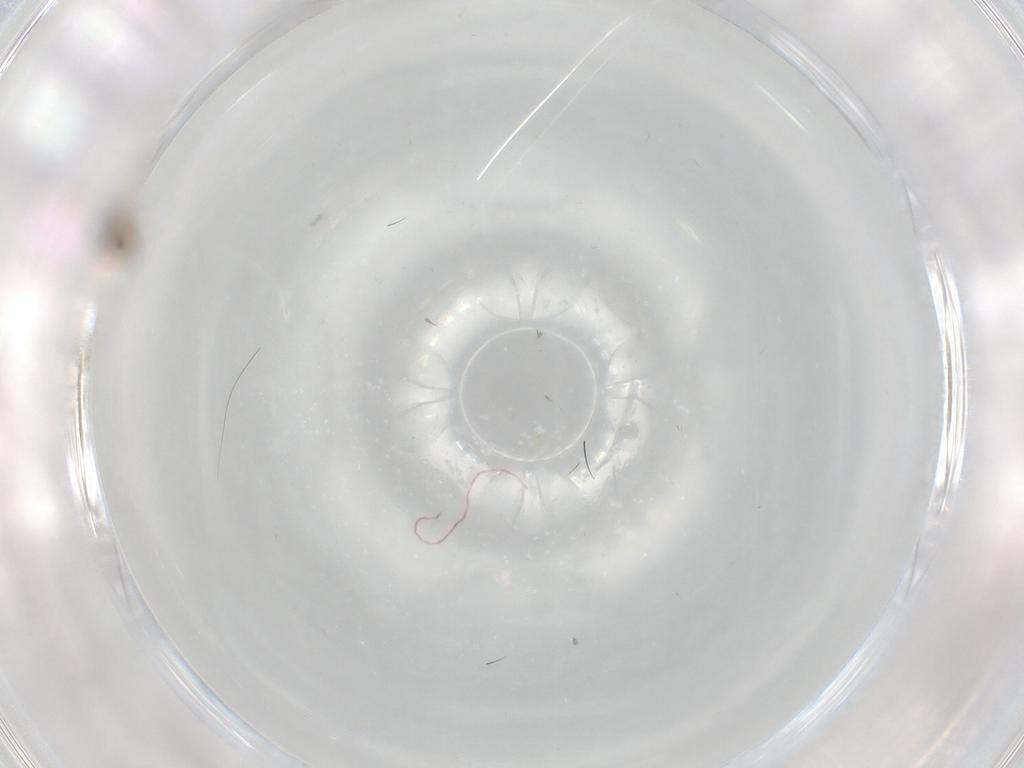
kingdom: Animalia
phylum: Arthropoda
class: Insecta
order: Diptera
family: Cecidomyiidae
